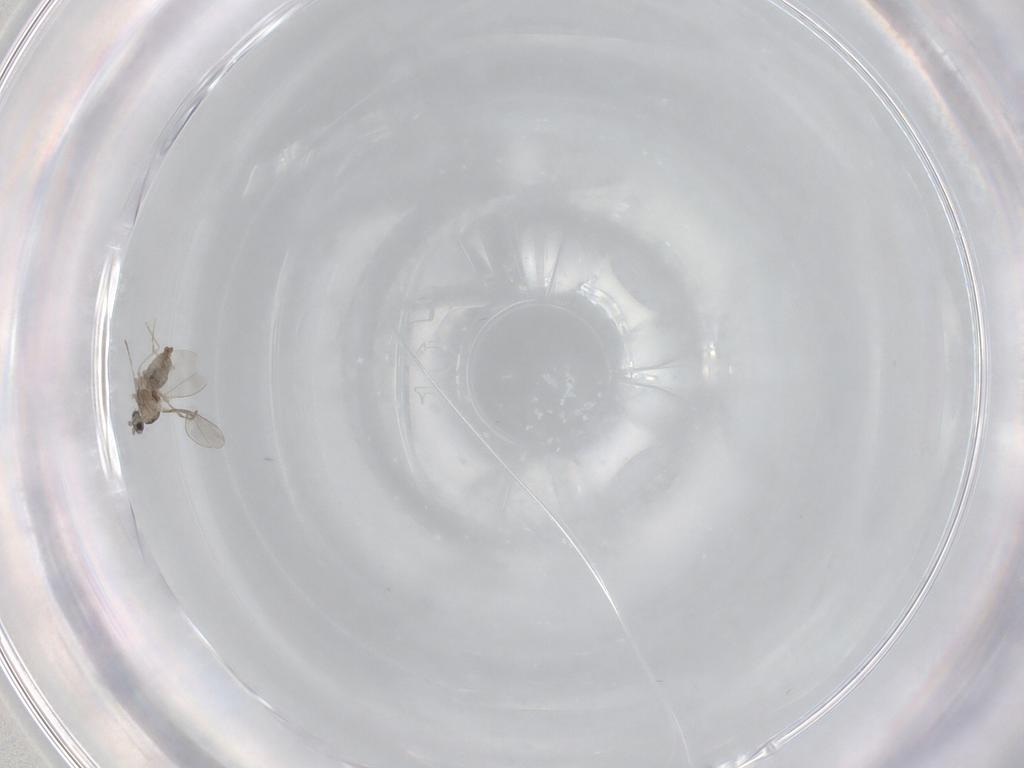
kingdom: Animalia
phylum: Arthropoda
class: Insecta
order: Diptera
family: Cecidomyiidae
